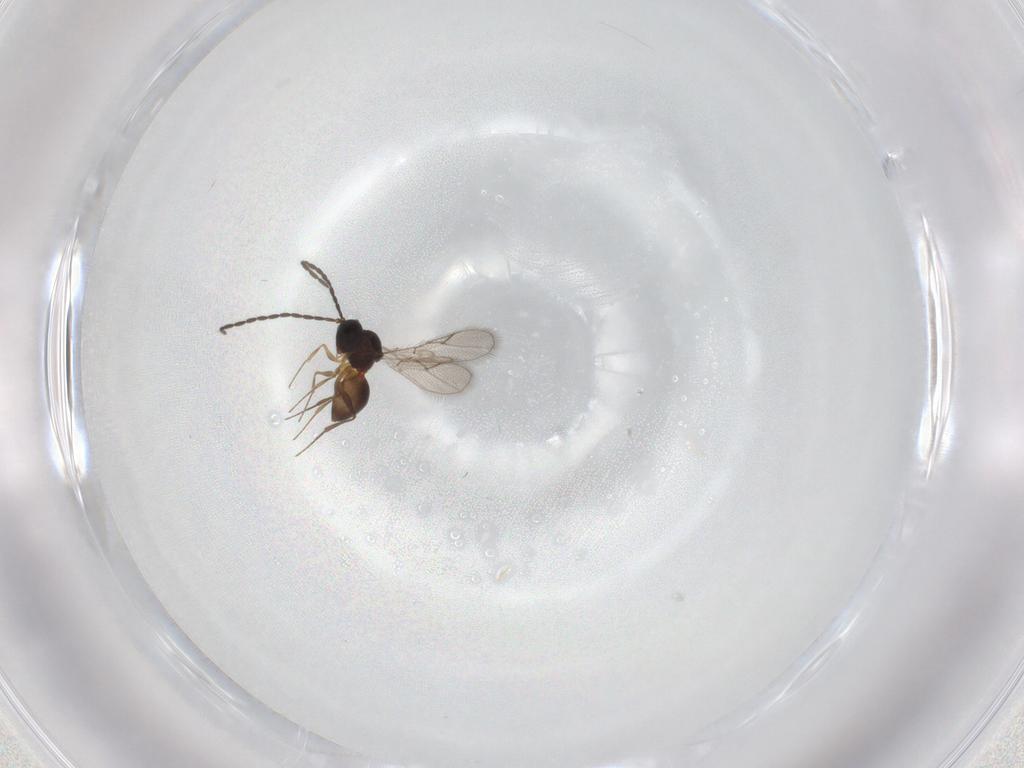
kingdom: Animalia
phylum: Arthropoda
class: Insecta
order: Hymenoptera
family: Figitidae
